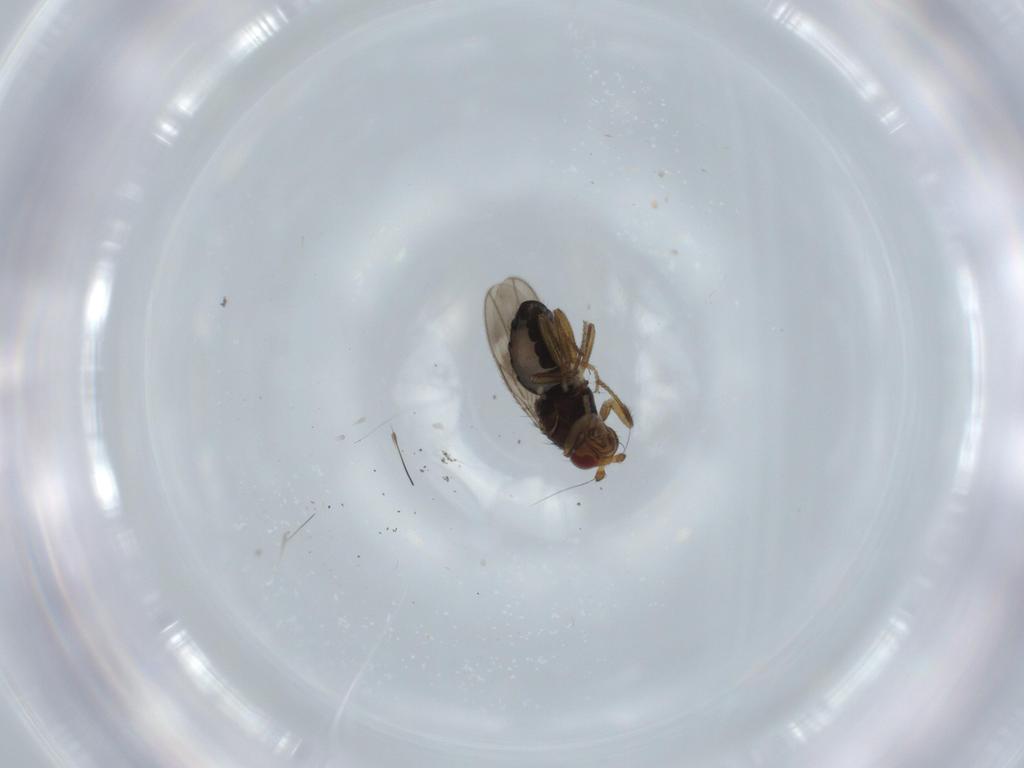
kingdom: Animalia
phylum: Arthropoda
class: Insecta
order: Diptera
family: Sphaeroceridae
